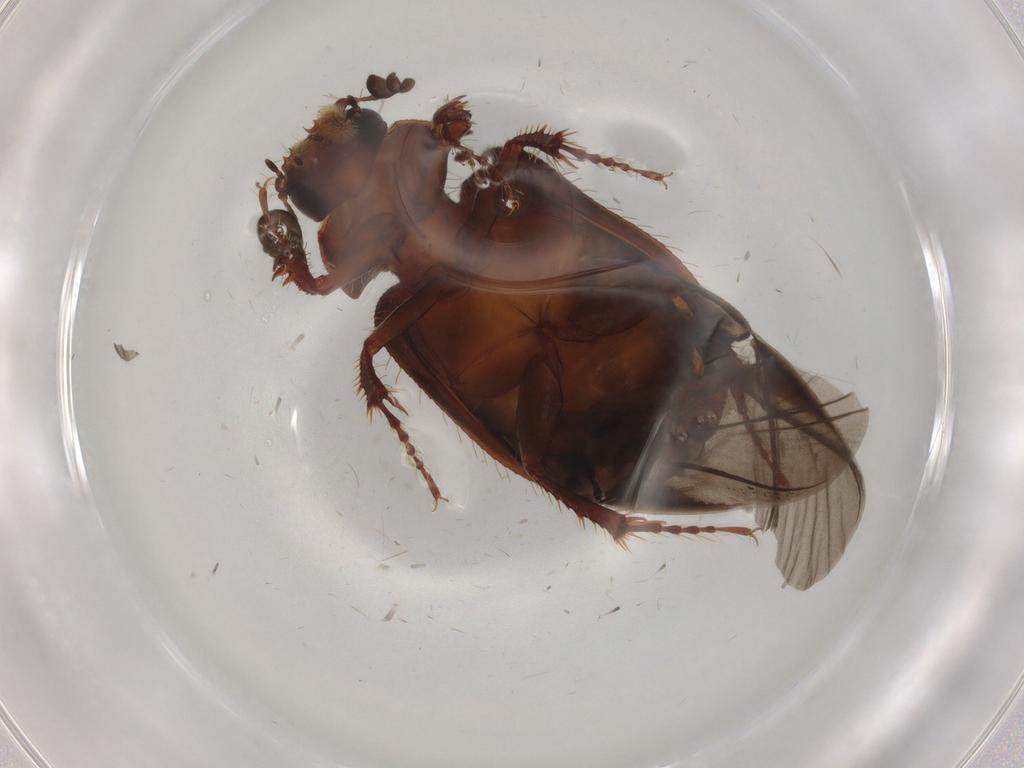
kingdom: Animalia
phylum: Arthropoda
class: Insecta
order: Coleoptera
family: Hybosoridae
